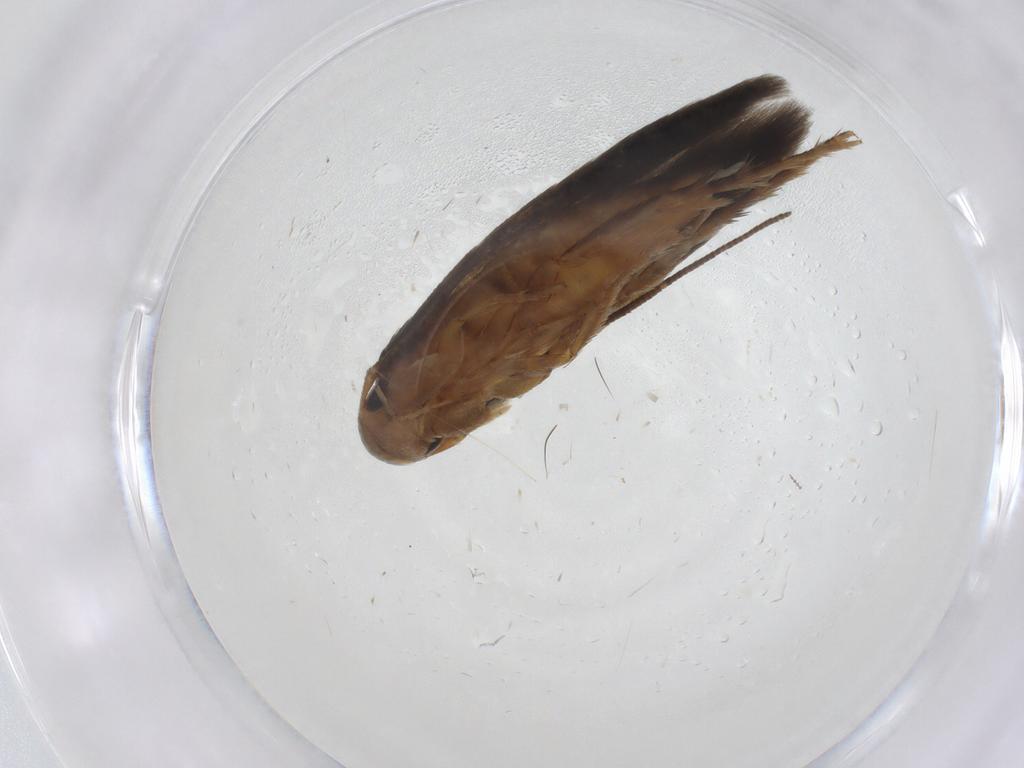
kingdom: Animalia
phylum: Arthropoda
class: Insecta
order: Lepidoptera
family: Tineidae
